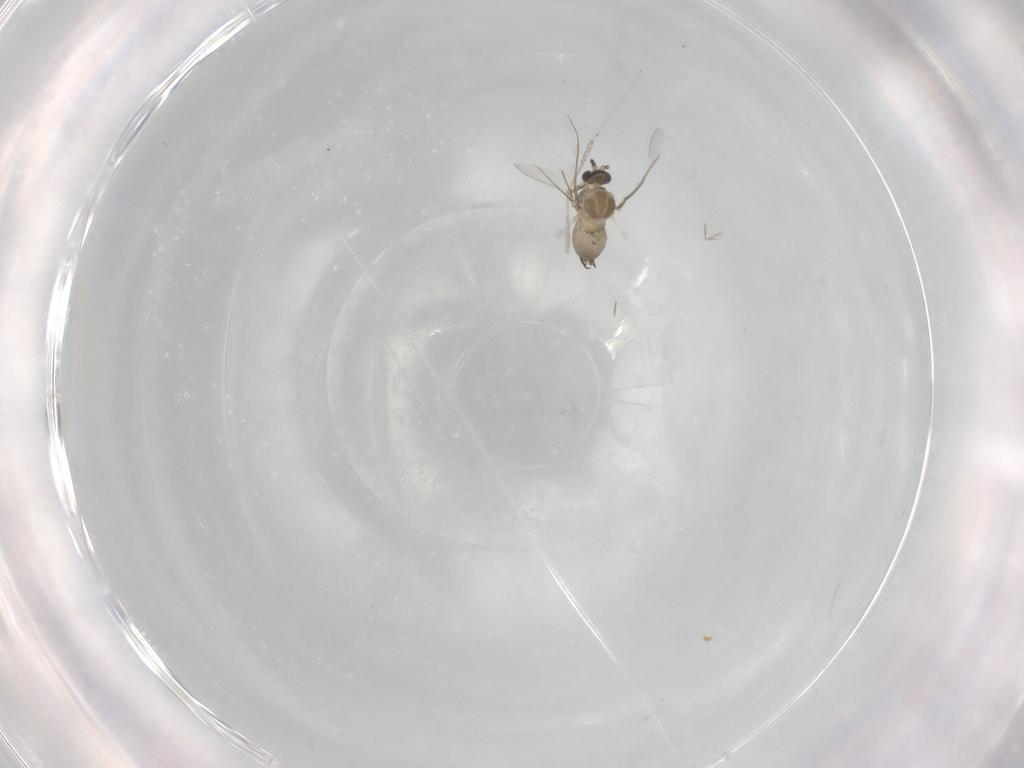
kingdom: Animalia
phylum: Arthropoda
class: Insecta
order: Diptera
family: Cecidomyiidae
